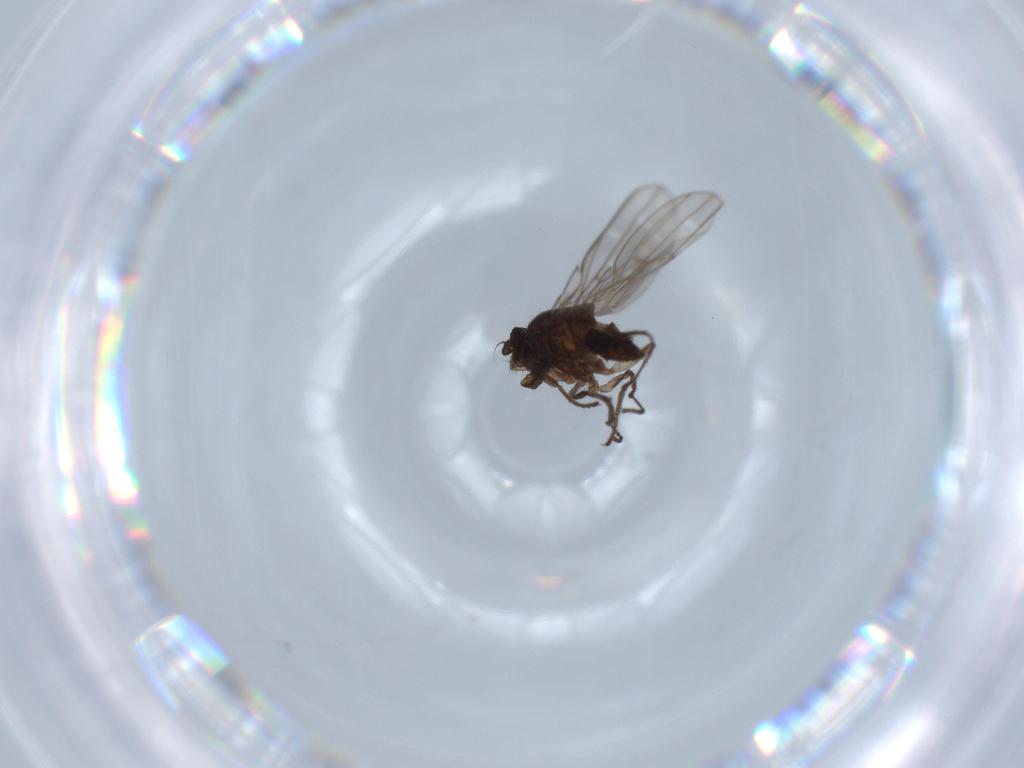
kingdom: Animalia
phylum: Arthropoda
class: Insecta
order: Diptera
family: Ephydridae
